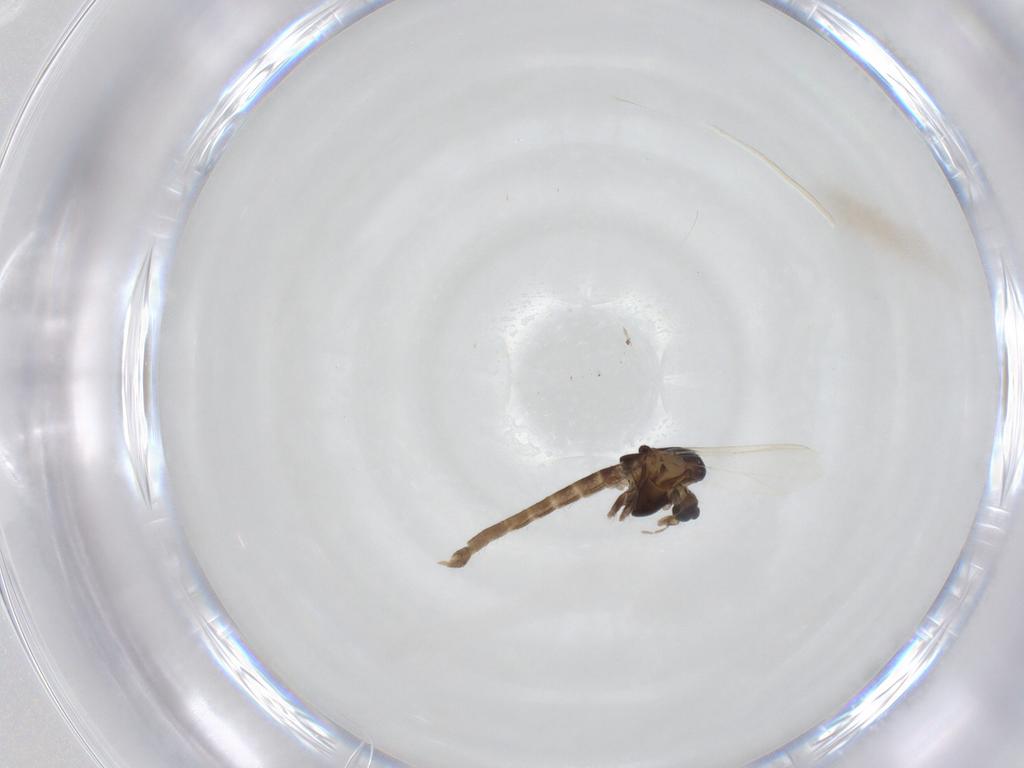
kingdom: Animalia
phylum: Arthropoda
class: Insecta
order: Diptera
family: Chironomidae
